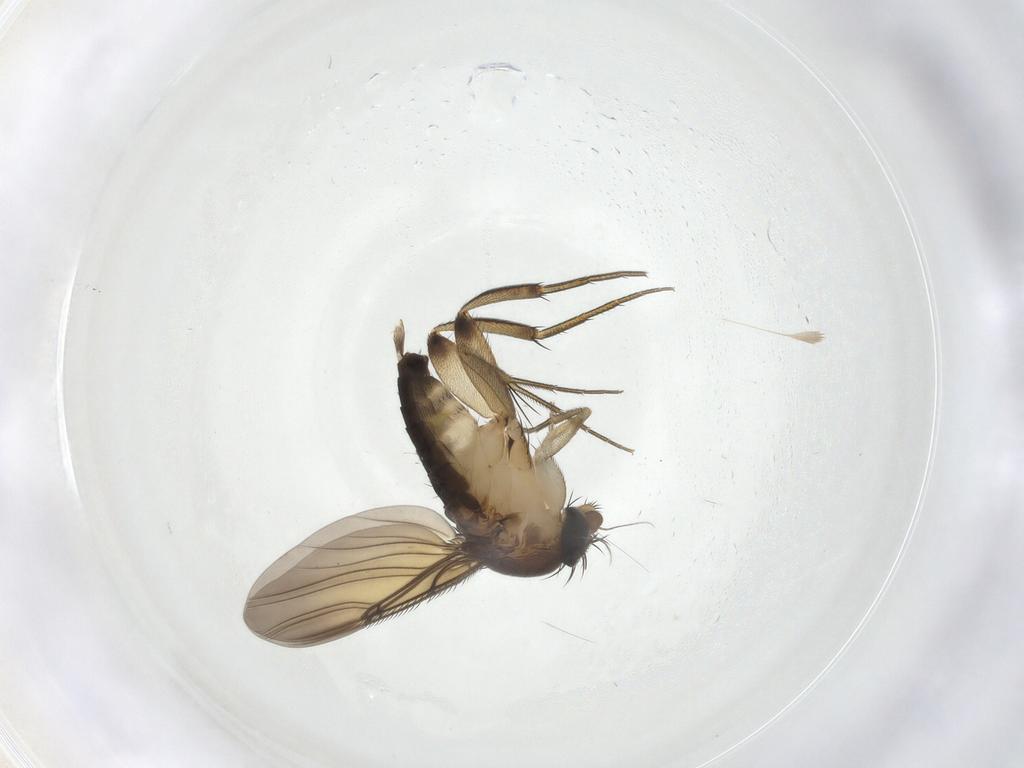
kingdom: Animalia
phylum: Arthropoda
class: Insecta
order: Diptera
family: Phoridae
